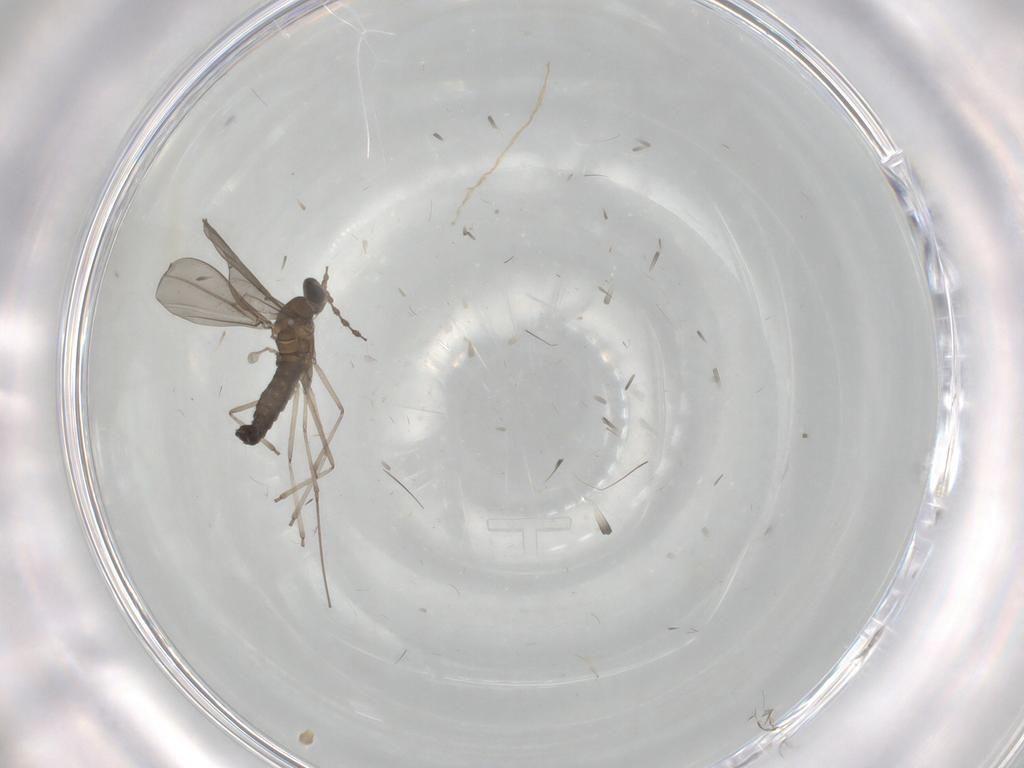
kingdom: Animalia
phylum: Arthropoda
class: Insecta
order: Diptera
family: Cecidomyiidae
